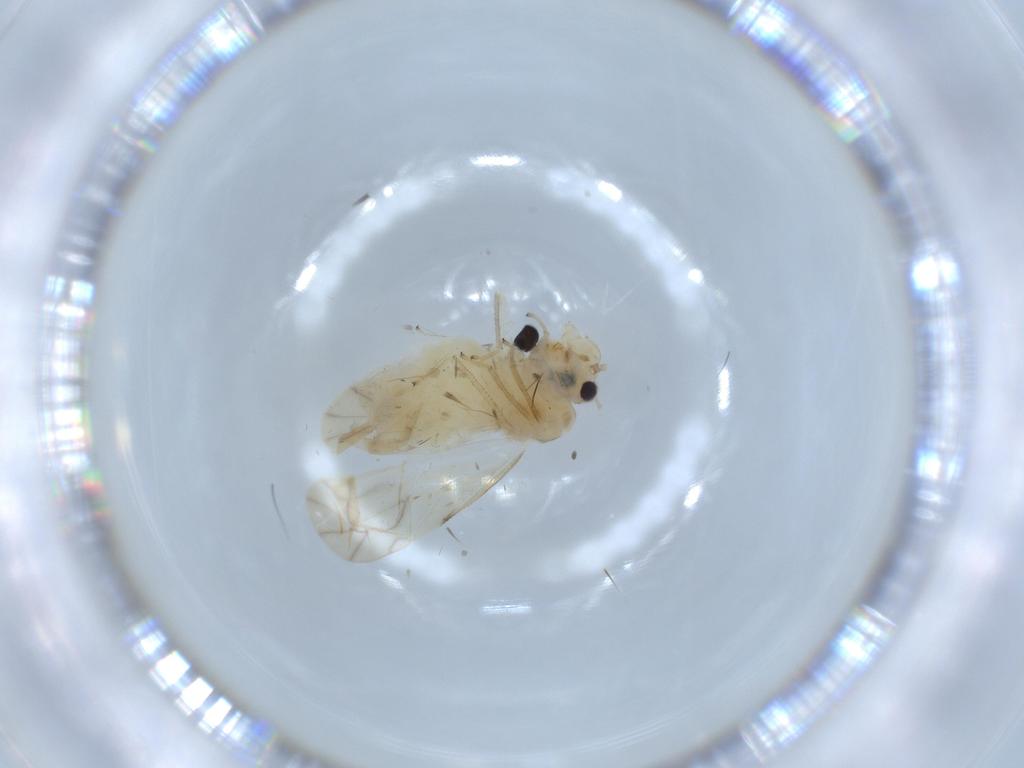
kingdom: Animalia
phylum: Arthropoda
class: Insecta
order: Psocodea
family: Caeciliusidae
